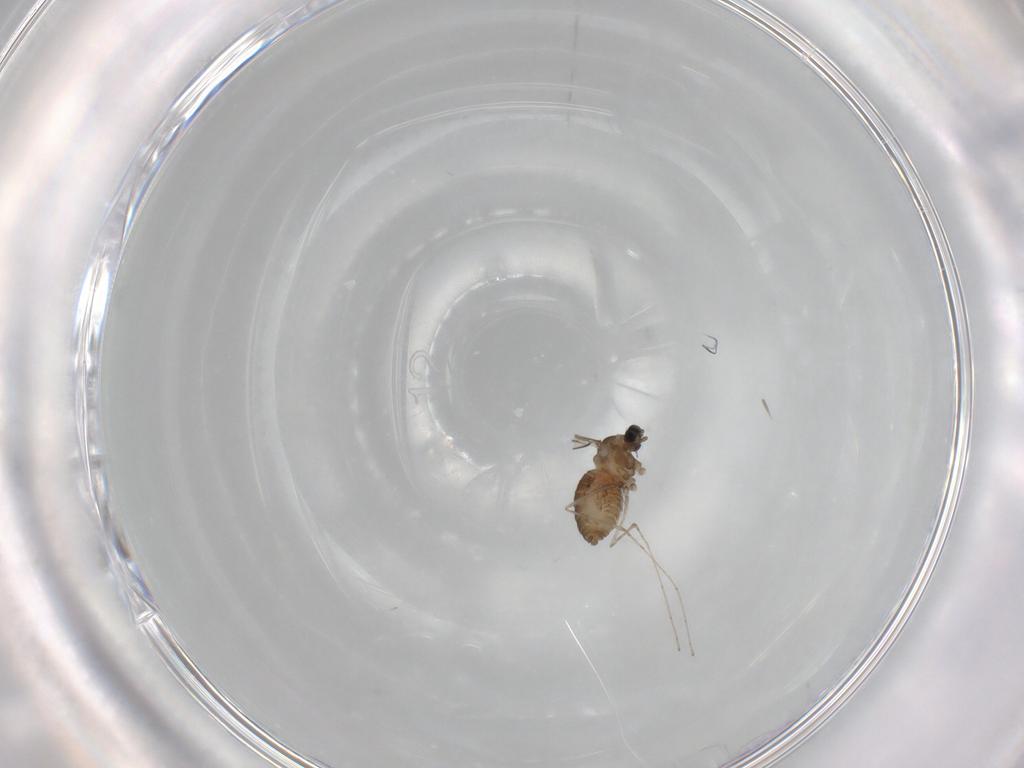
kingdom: Animalia
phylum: Arthropoda
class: Insecta
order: Diptera
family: Cecidomyiidae
